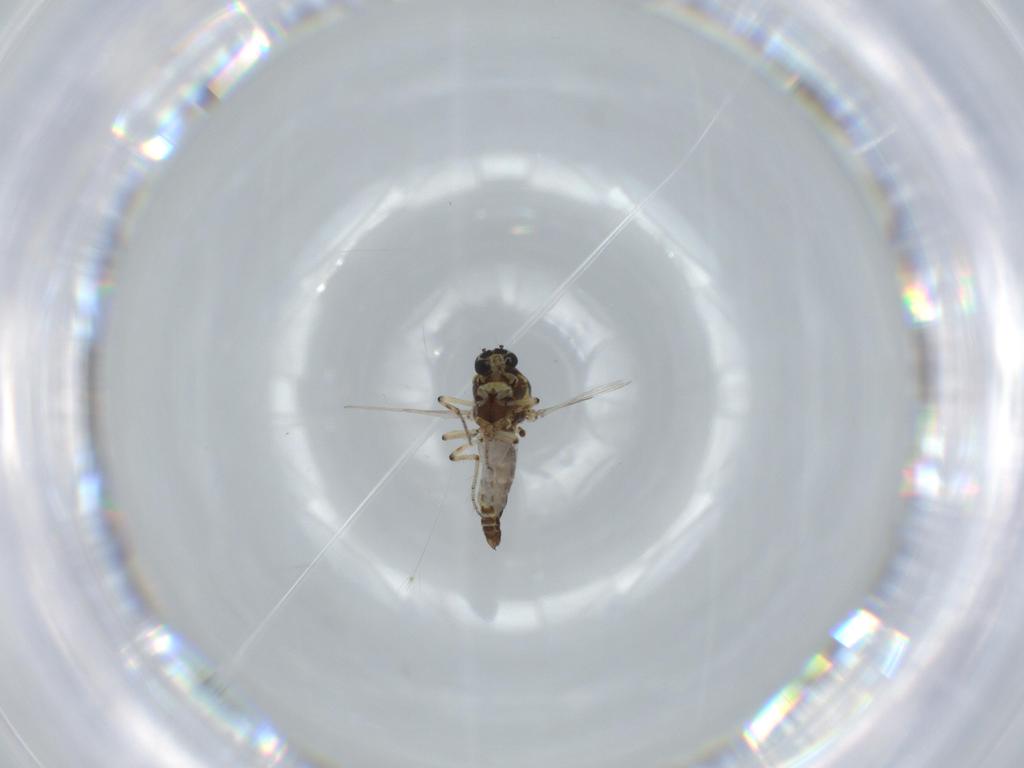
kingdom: Animalia
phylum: Arthropoda
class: Insecta
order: Diptera
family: Ceratopogonidae
